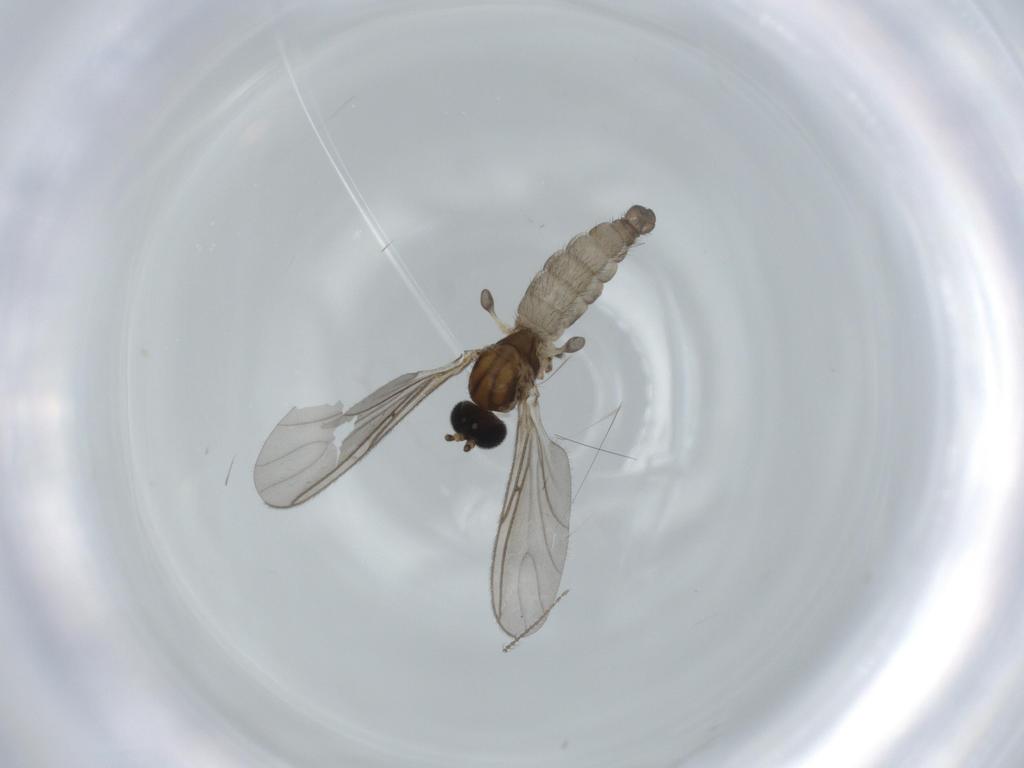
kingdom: Animalia
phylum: Arthropoda
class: Insecta
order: Diptera
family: Ceratopogonidae
